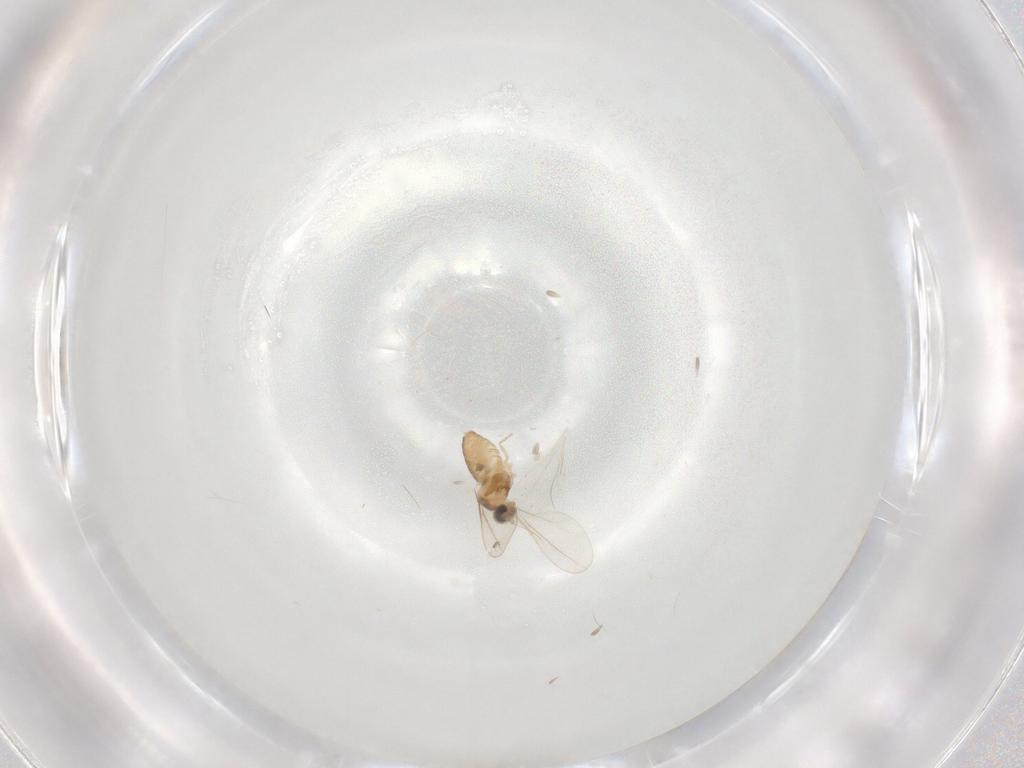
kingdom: Animalia
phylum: Arthropoda
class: Insecta
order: Diptera
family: Cecidomyiidae
